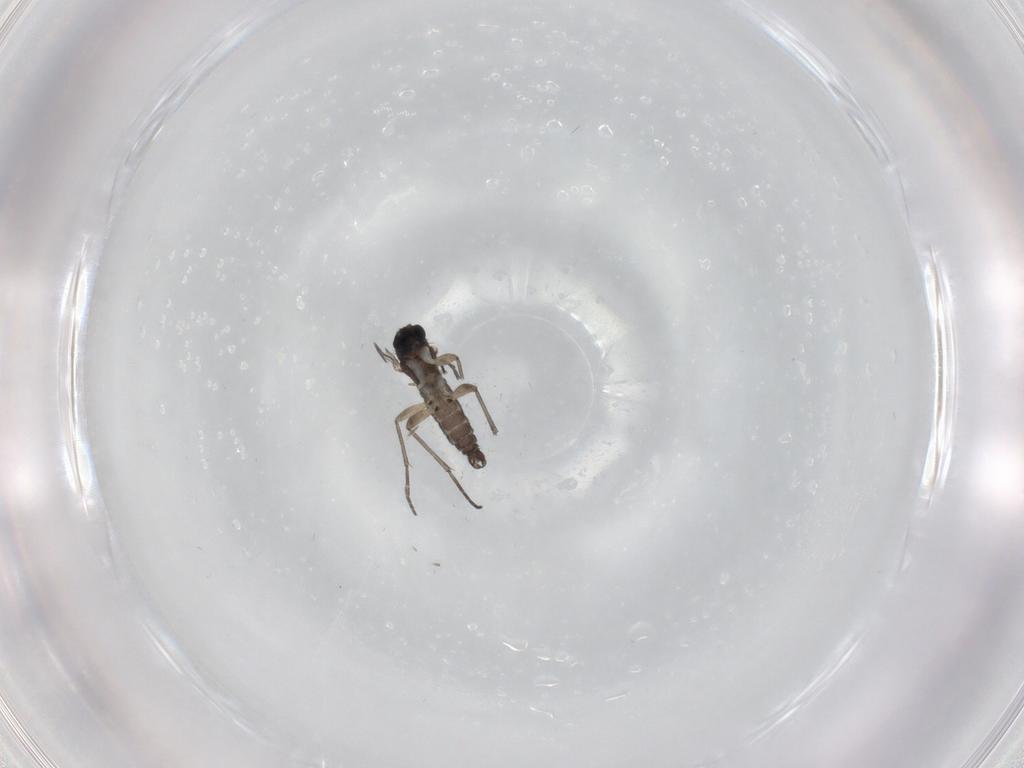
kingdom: Animalia
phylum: Arthropoda
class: Insecta
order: Diptera
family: Sciaridae
